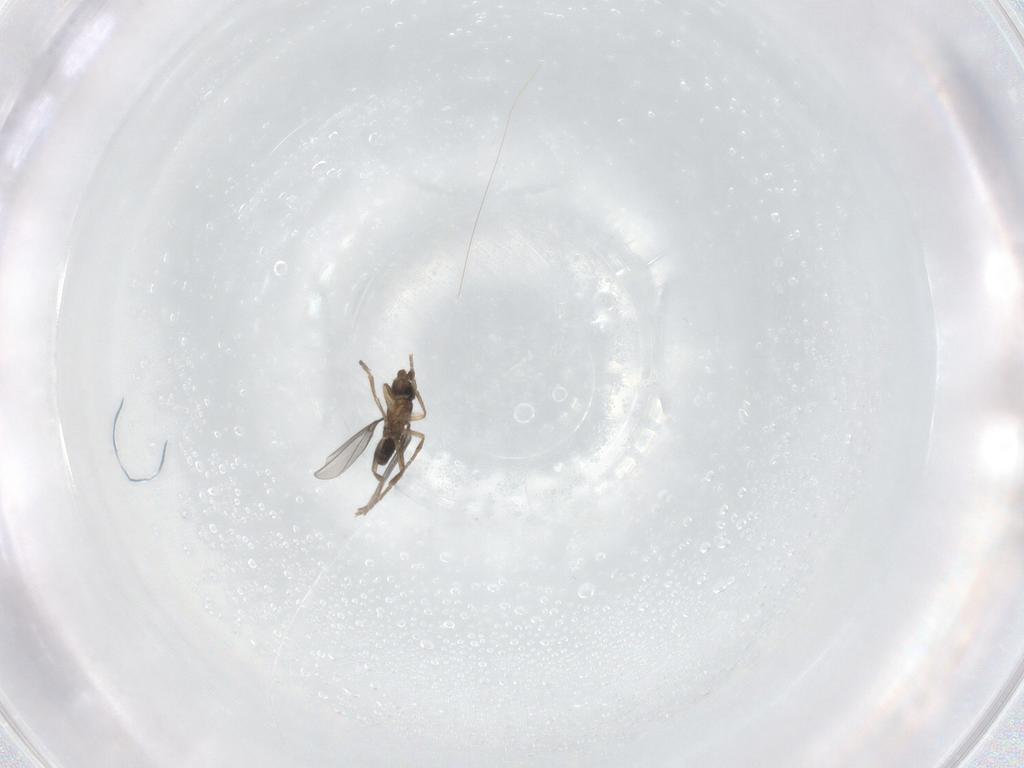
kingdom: Animalia
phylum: Arthropoda
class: Insecta
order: Diptera
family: Phoridae
